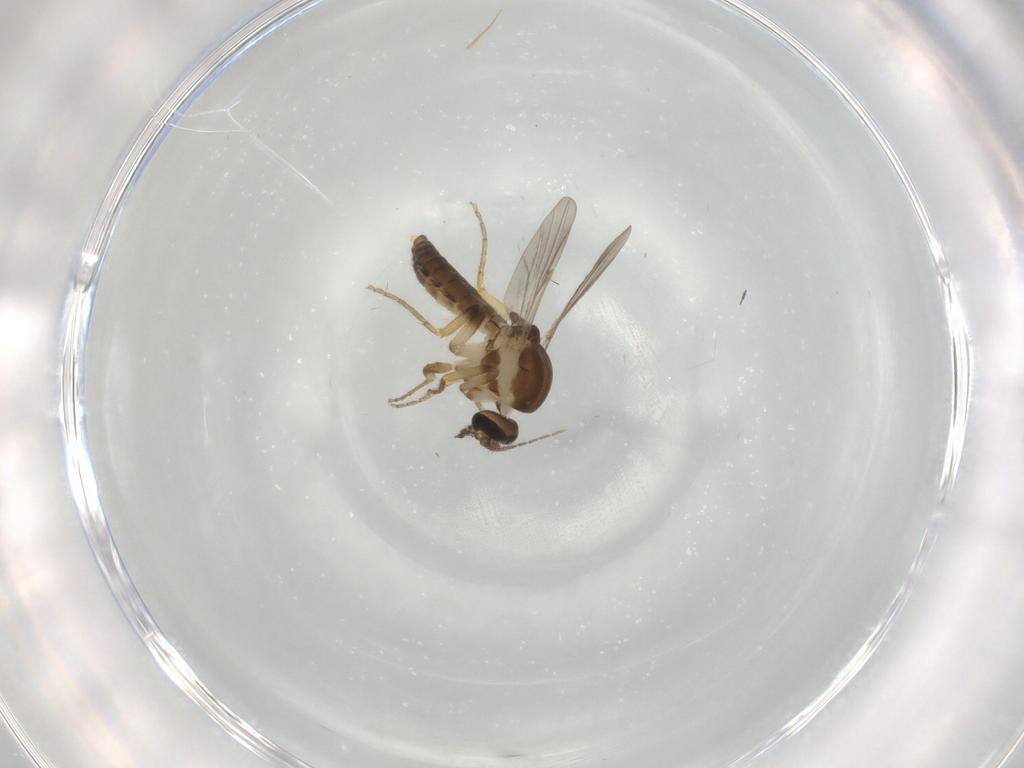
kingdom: Animalia
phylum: Arthropoda
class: Insecta
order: Diptera
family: Ceratopogonidae
